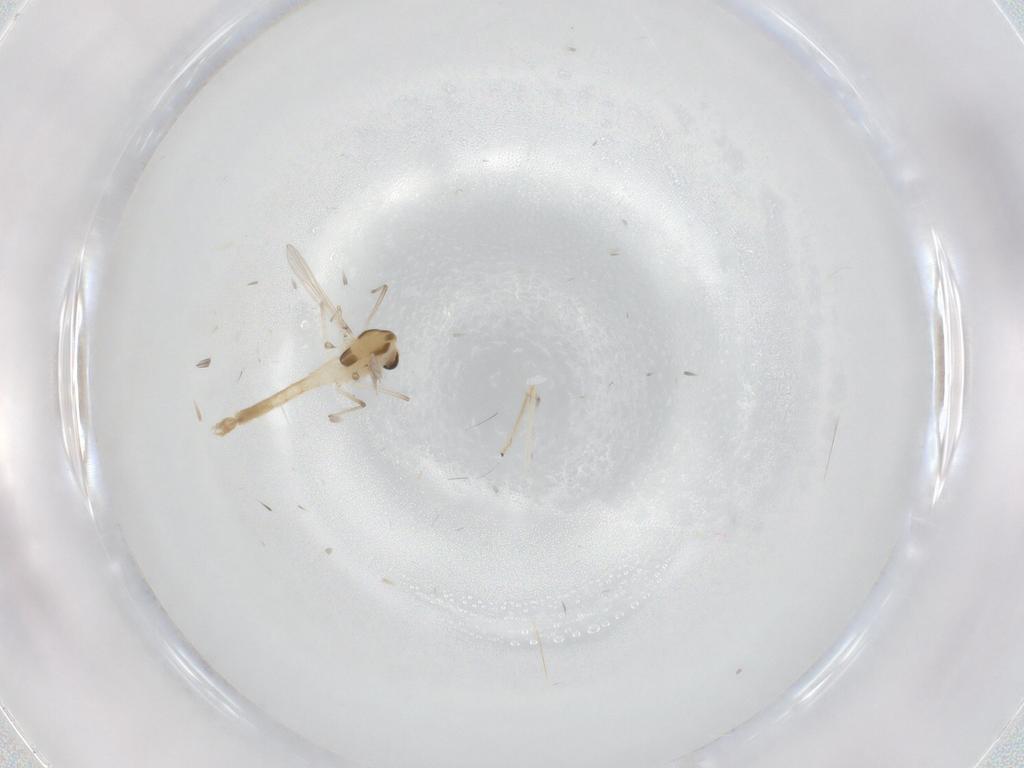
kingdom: Animalia
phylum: Arthropoda
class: Insecta
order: Diptera
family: Chironomidae
